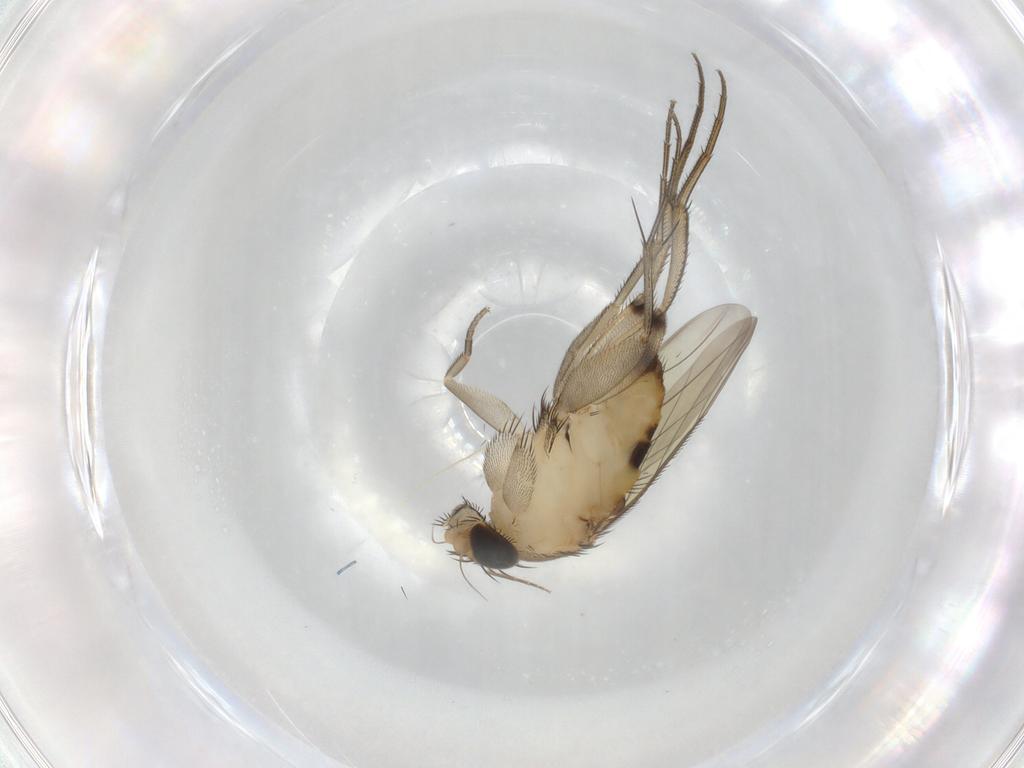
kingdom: Animalia
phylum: Arthropoda
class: Insecta
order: Diptera
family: Phoridae
